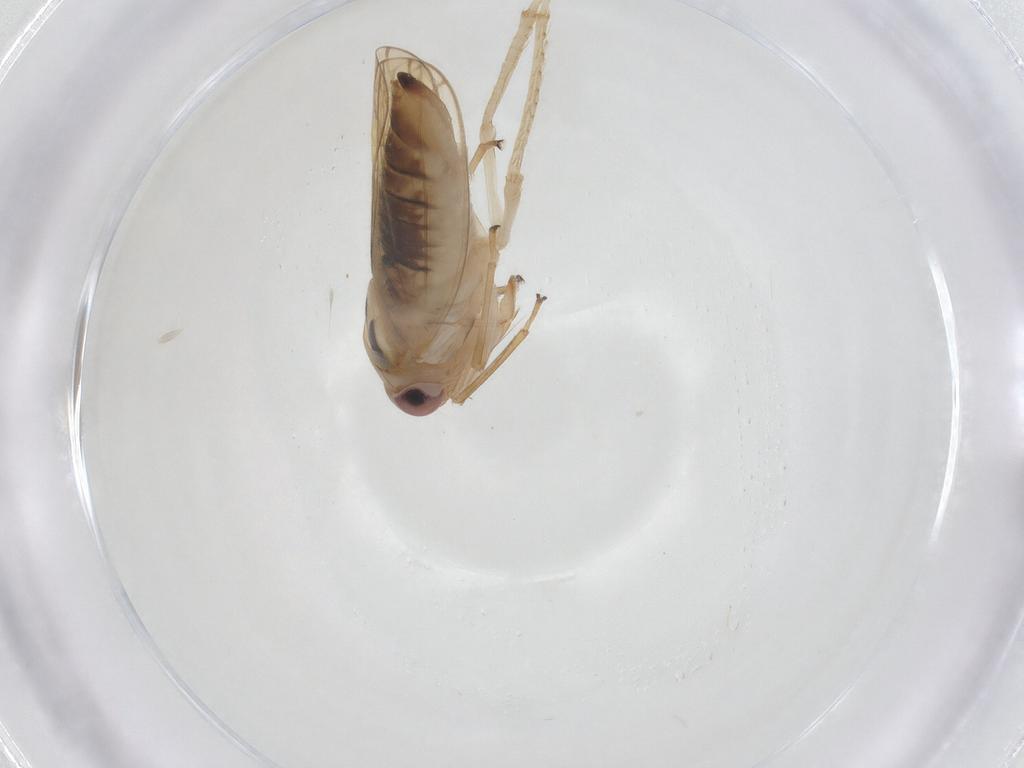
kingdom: Animalia
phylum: Arthropoda
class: Insecta
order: Hemiptera
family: Cicadellidae
